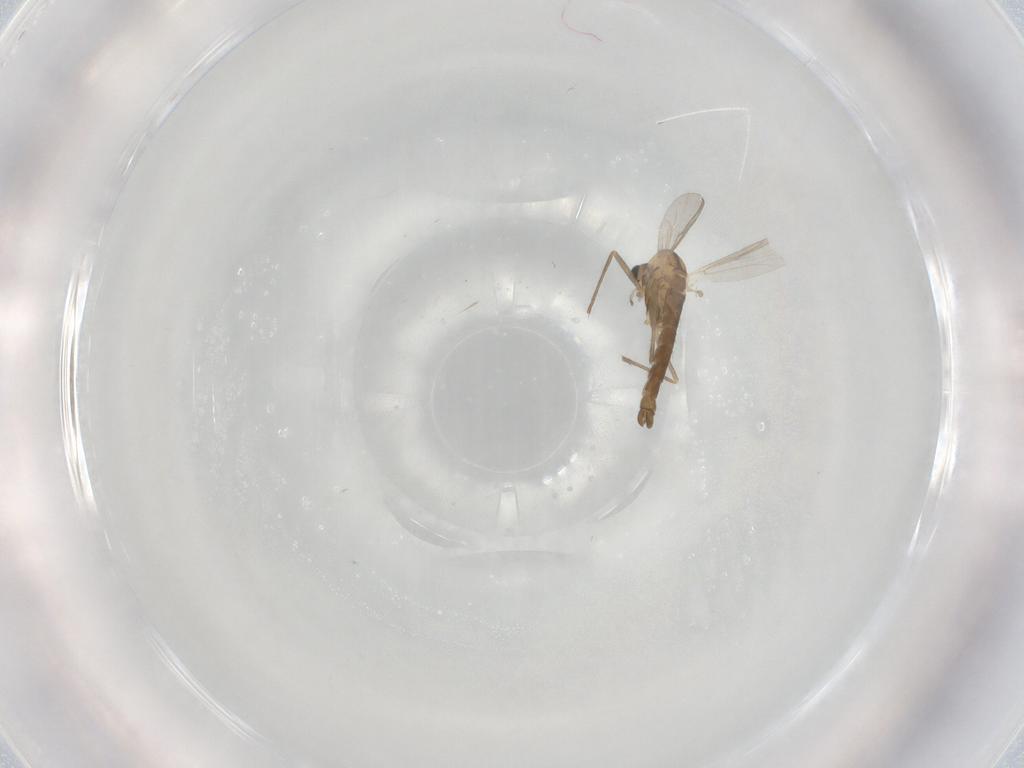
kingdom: Animalia
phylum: Arthropoda
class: Insecta
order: Diptera
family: Chironomidae
